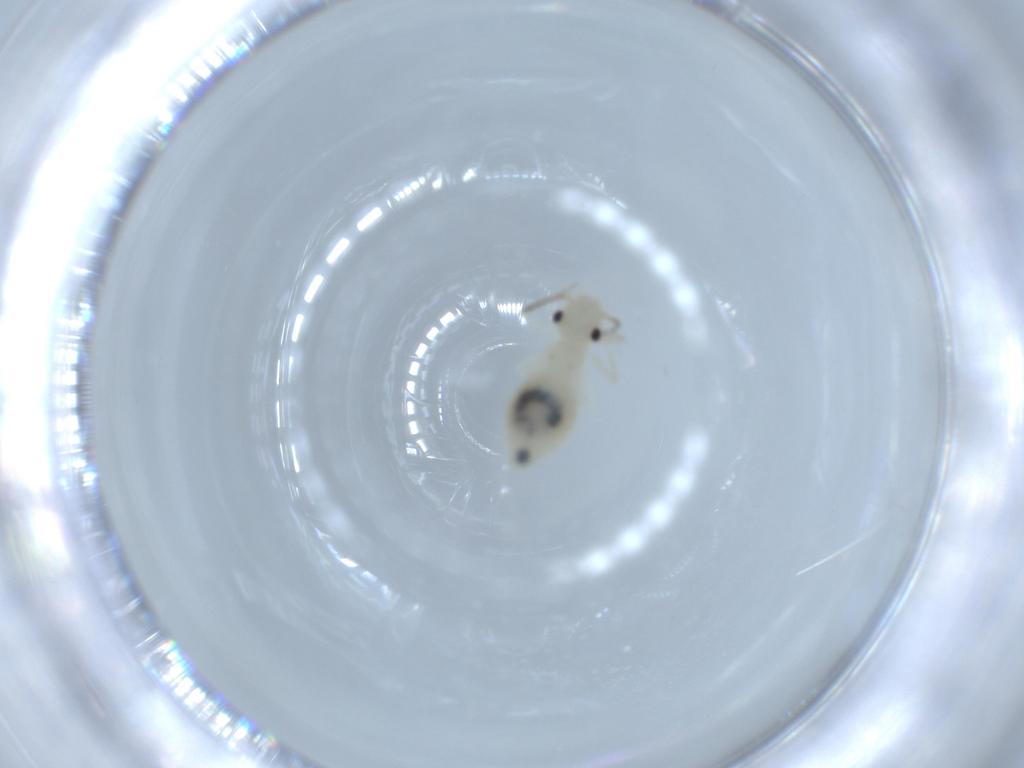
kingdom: Animalia
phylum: Arthropoda
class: Insecta
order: Psocodea
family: Caeciliusidae
